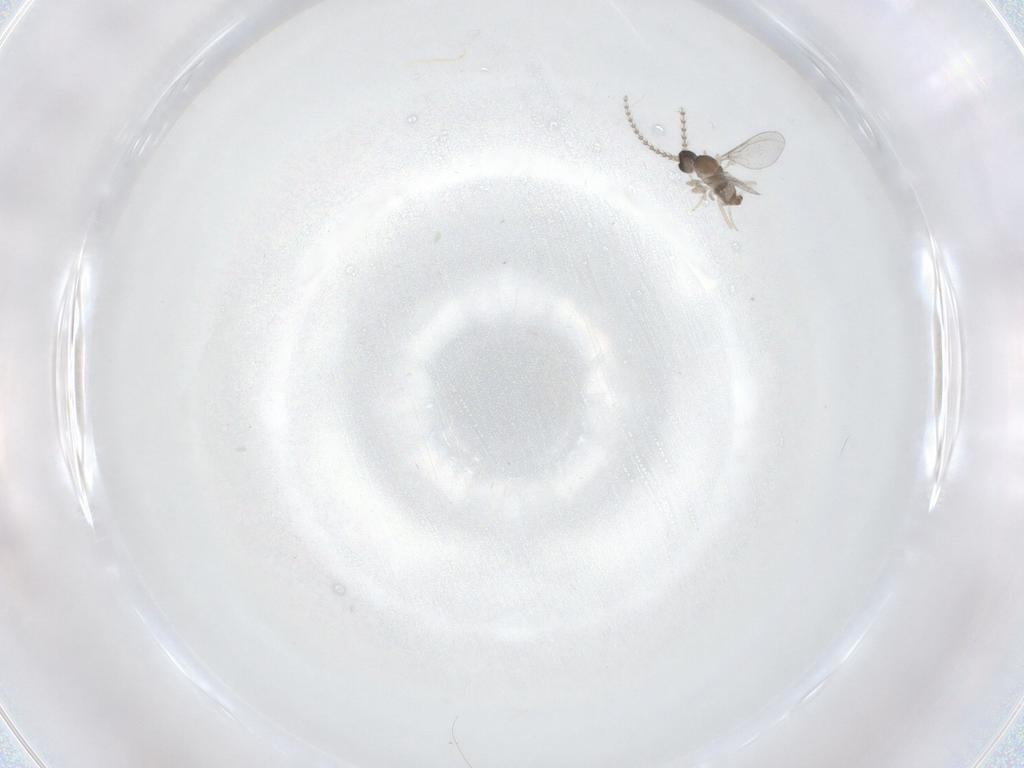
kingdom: Animalia
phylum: Arthropoda
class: Insecta
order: Diptera
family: Cecidomyiidae
